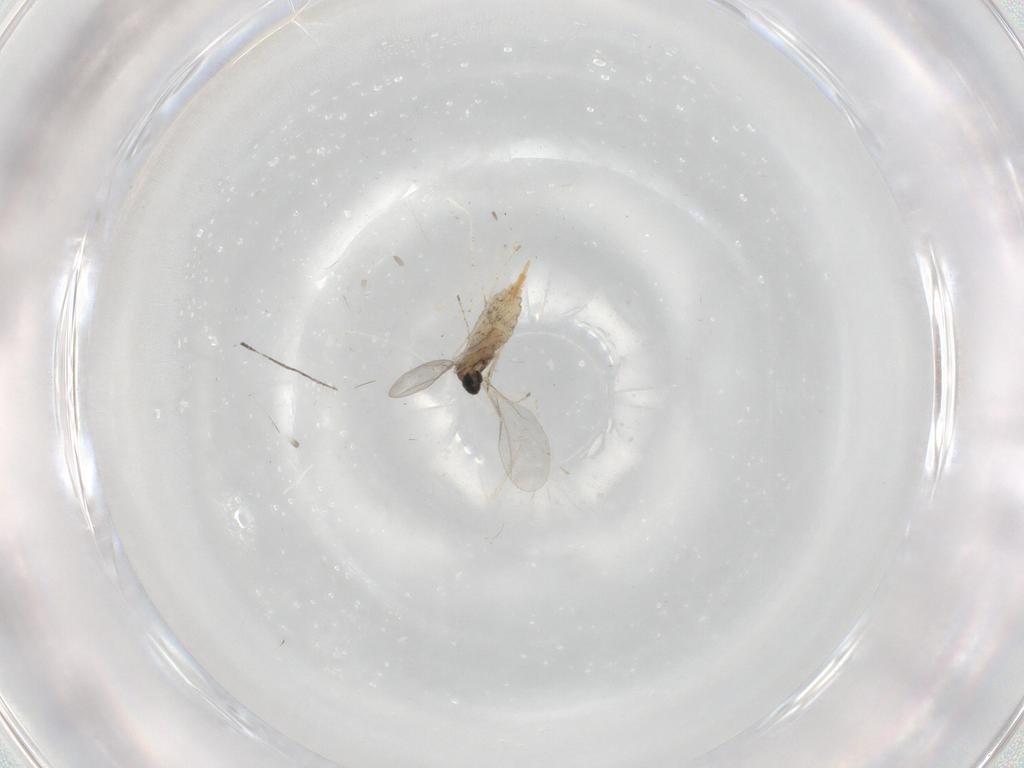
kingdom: Animalia
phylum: Arthropoda
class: Insecta
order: Diptera
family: Cecidomyiidae
